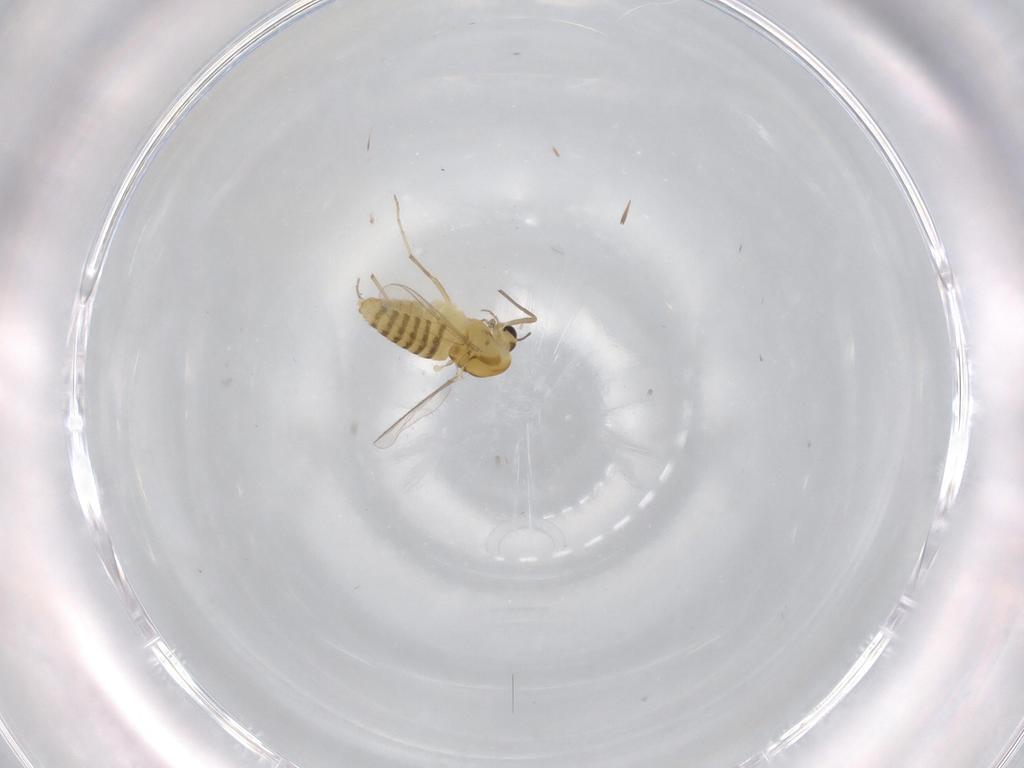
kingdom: Animalia
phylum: Arthropoda
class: Insecta
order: Diptera
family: Chironomidae
